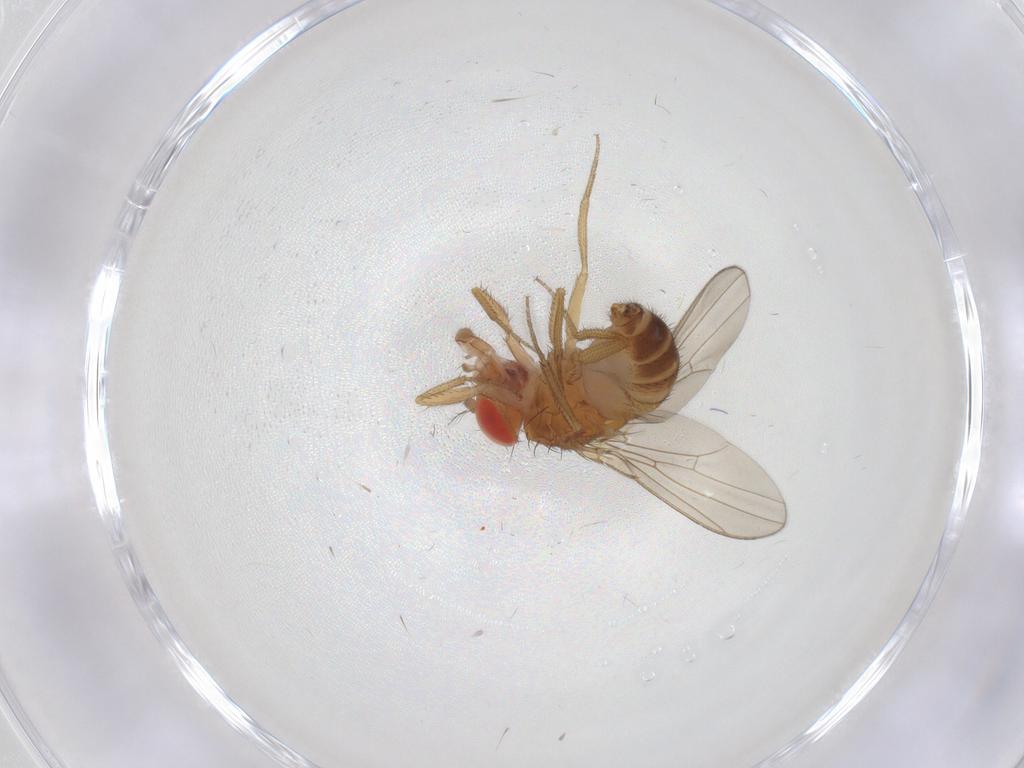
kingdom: Animalia
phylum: Arthropoda
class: Insecta
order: Diptera
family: Drosophilidae
